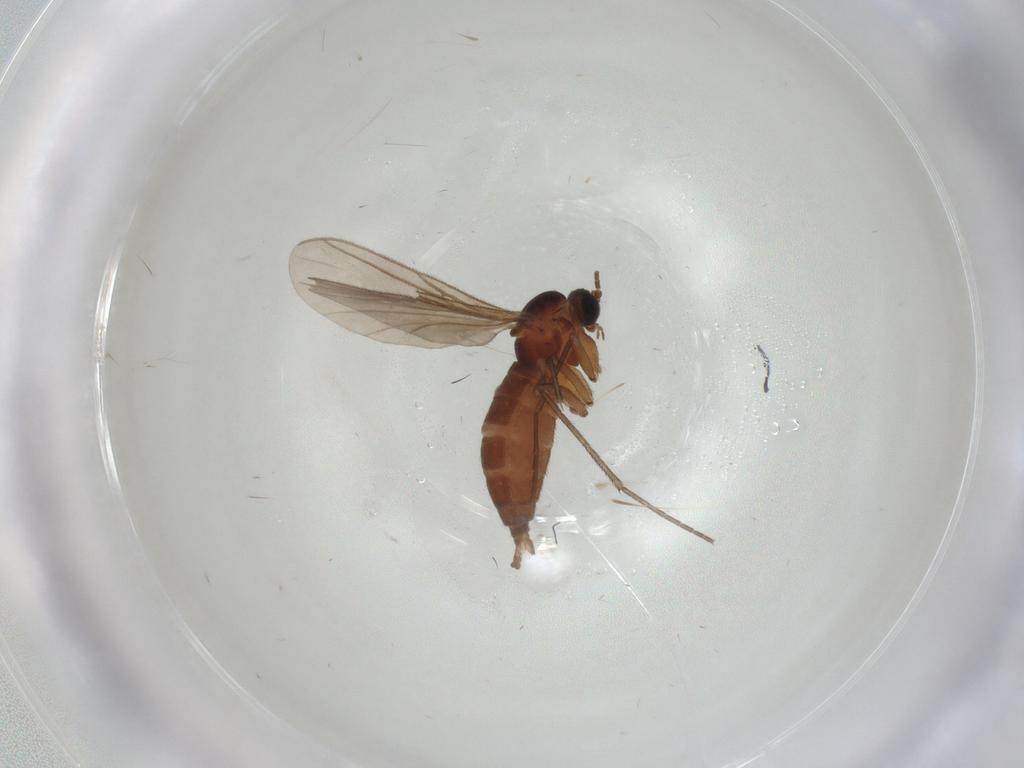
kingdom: Animalia
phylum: Arthropoda
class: Insecta
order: Diptera
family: Sciaridae
